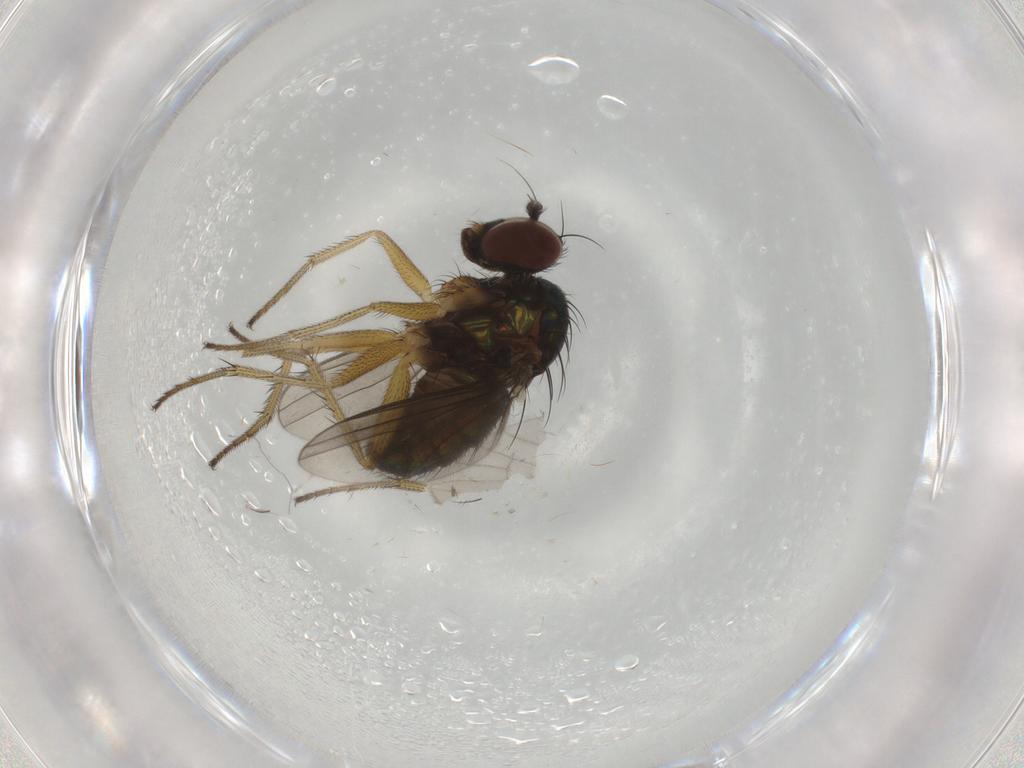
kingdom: Animalia
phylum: Arthropoda
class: Insecta
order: Diptera
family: Dolichopodidae
